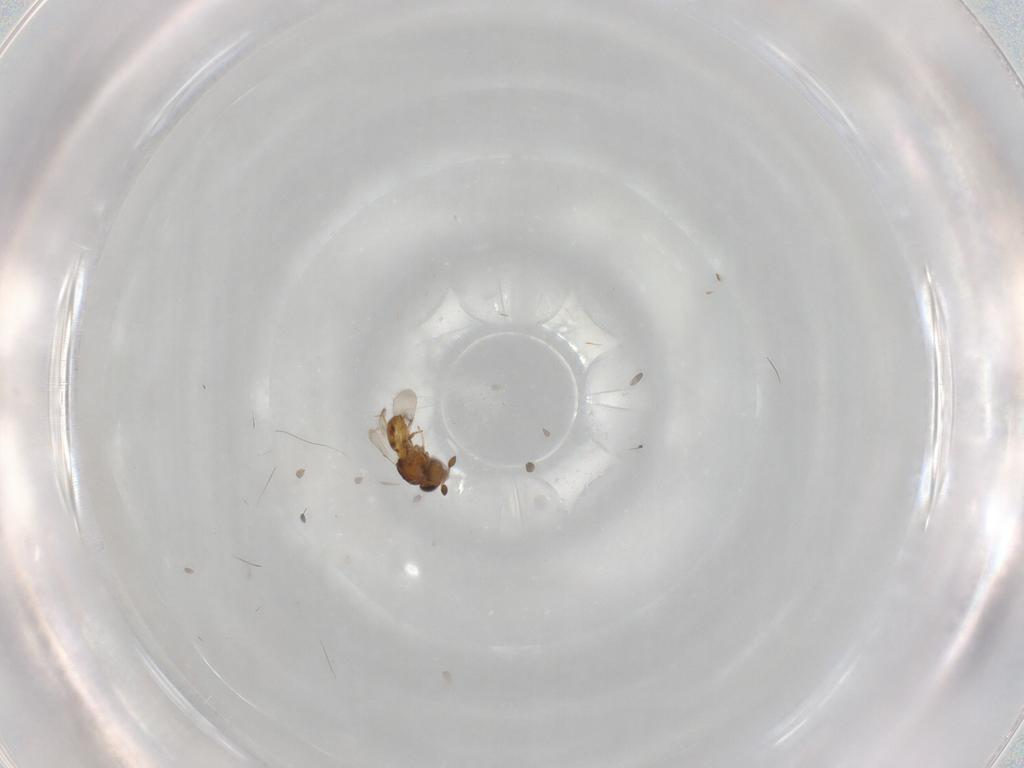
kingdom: Animalia
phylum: Arthropoda
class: Insecta
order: Hymenoptera
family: Scelionidae
